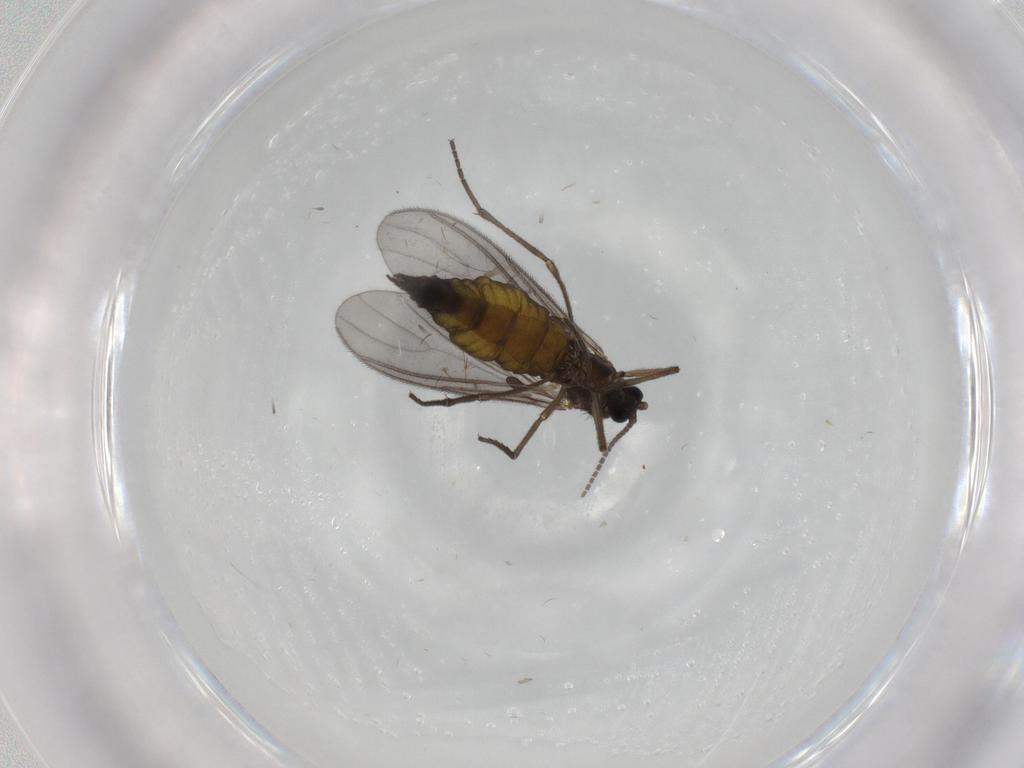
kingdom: Animalia
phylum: Arthropoda
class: Insecta
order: Diptera
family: Sciaridae
